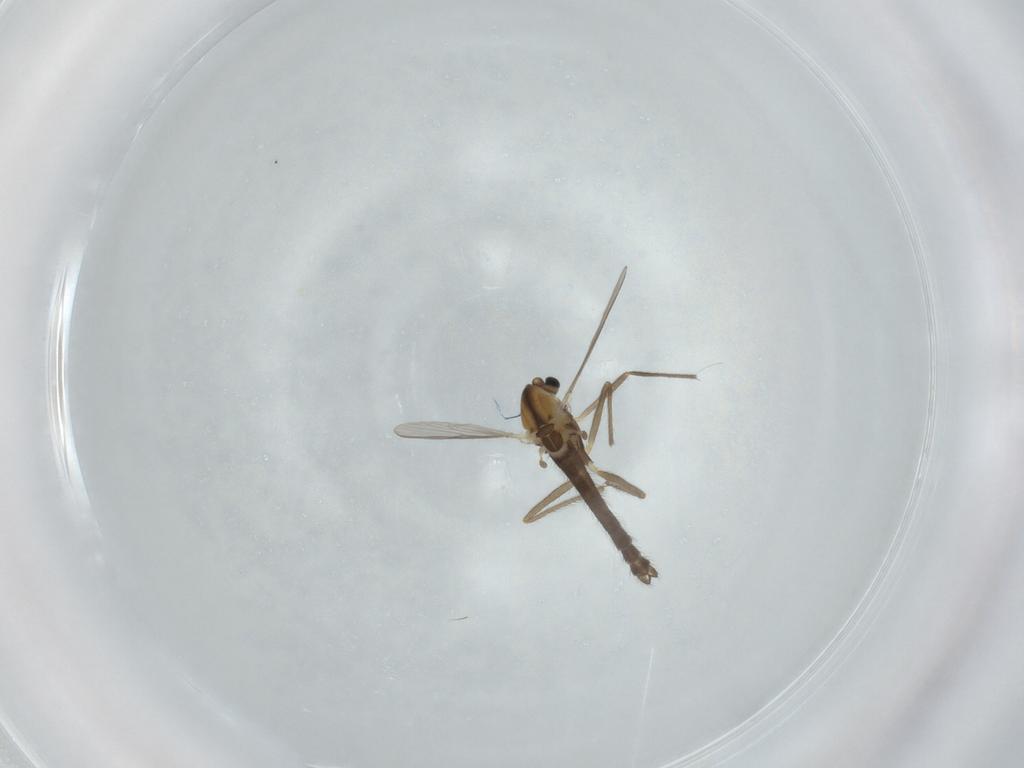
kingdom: Animalia
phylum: Arthropoda
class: Insecta
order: Diptera
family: Chironomidae
